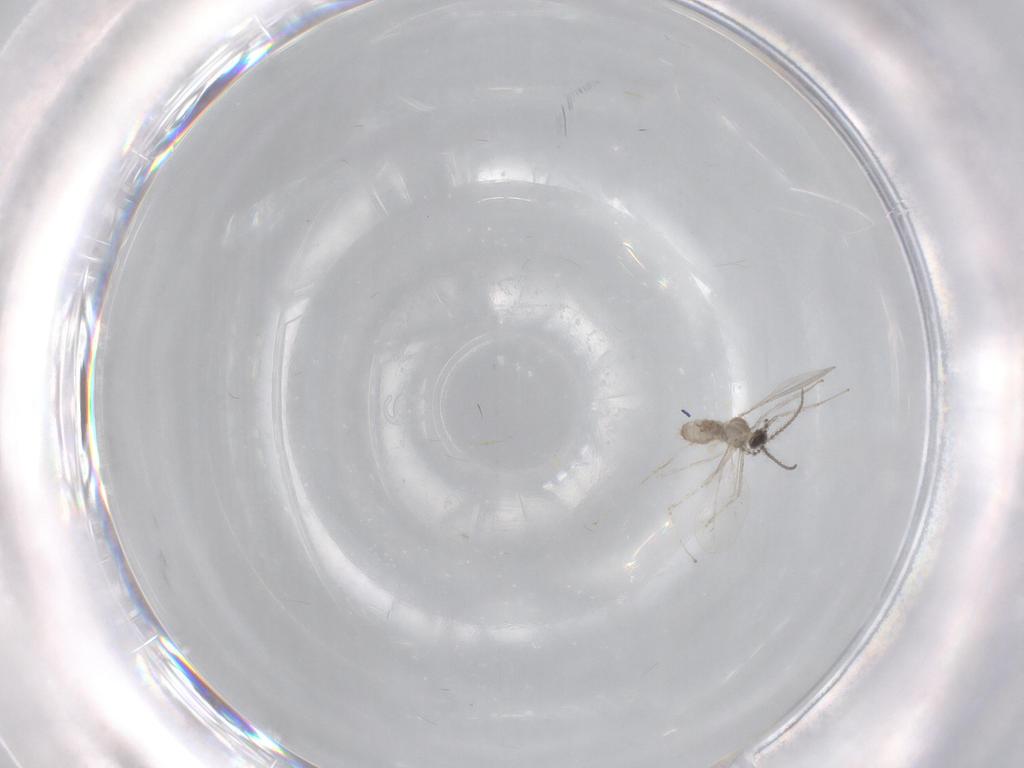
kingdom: Animalia
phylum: Arthropoda
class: Insecta
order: Diptera
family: Cecidomyiidae
